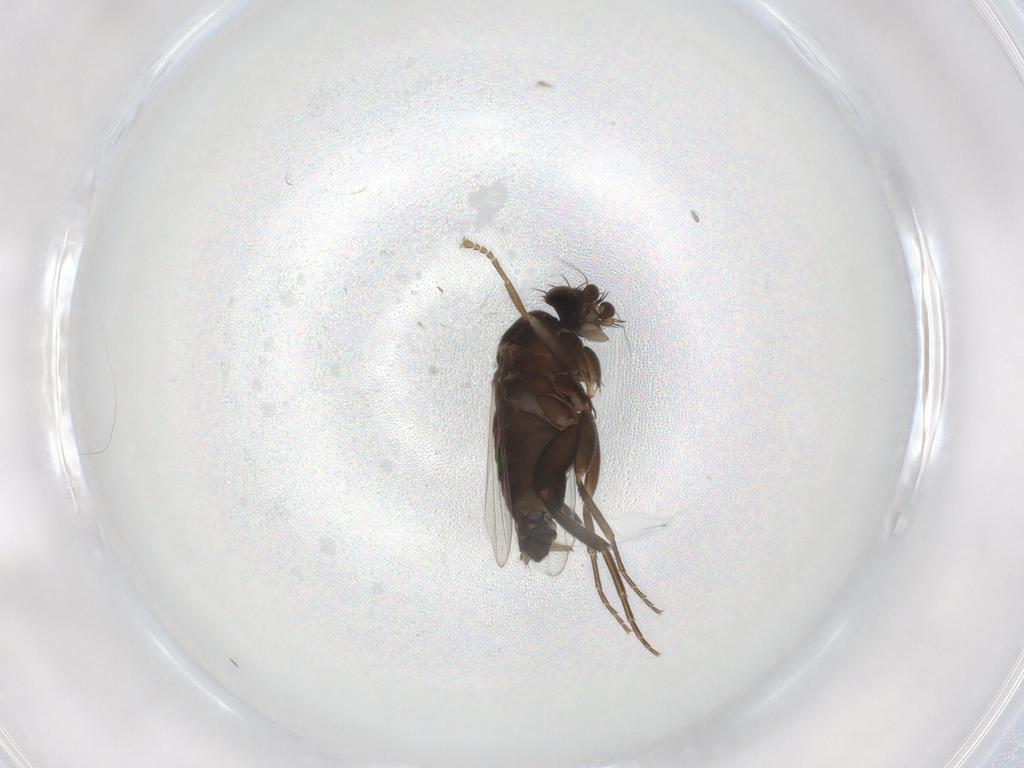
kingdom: Animalia
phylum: Arthropoda
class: Insecta
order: Diptera
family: Phoridae
